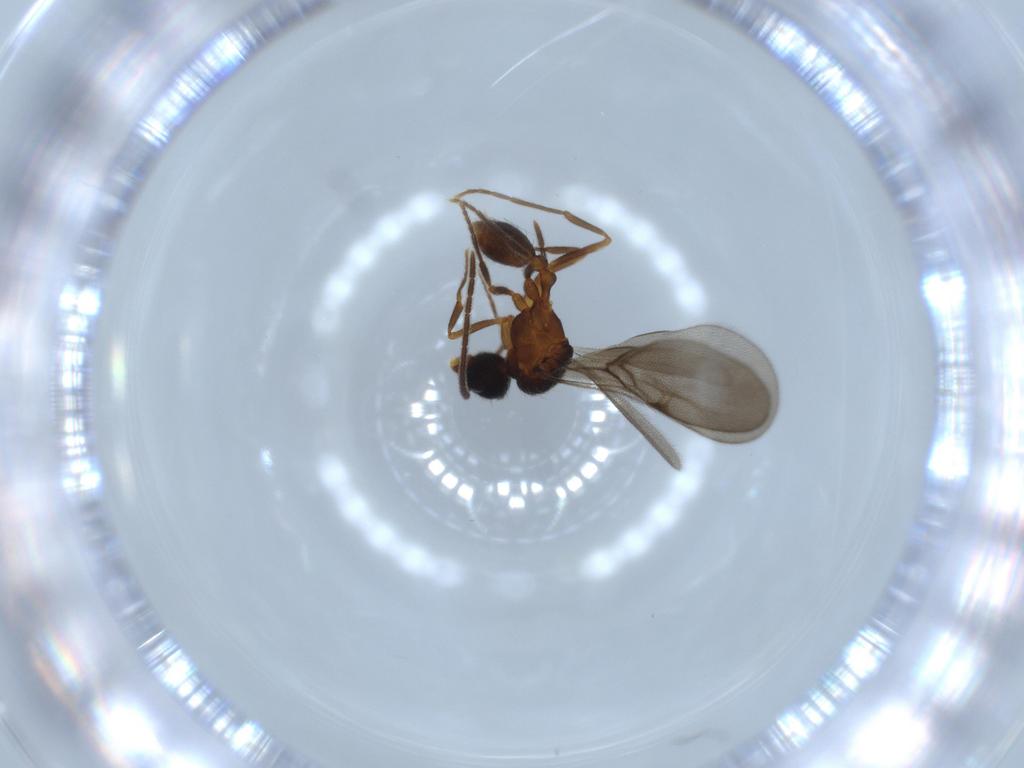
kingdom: Animalia
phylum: Arthropoda
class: Insecta
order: Hymenoptera
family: Formicidae
